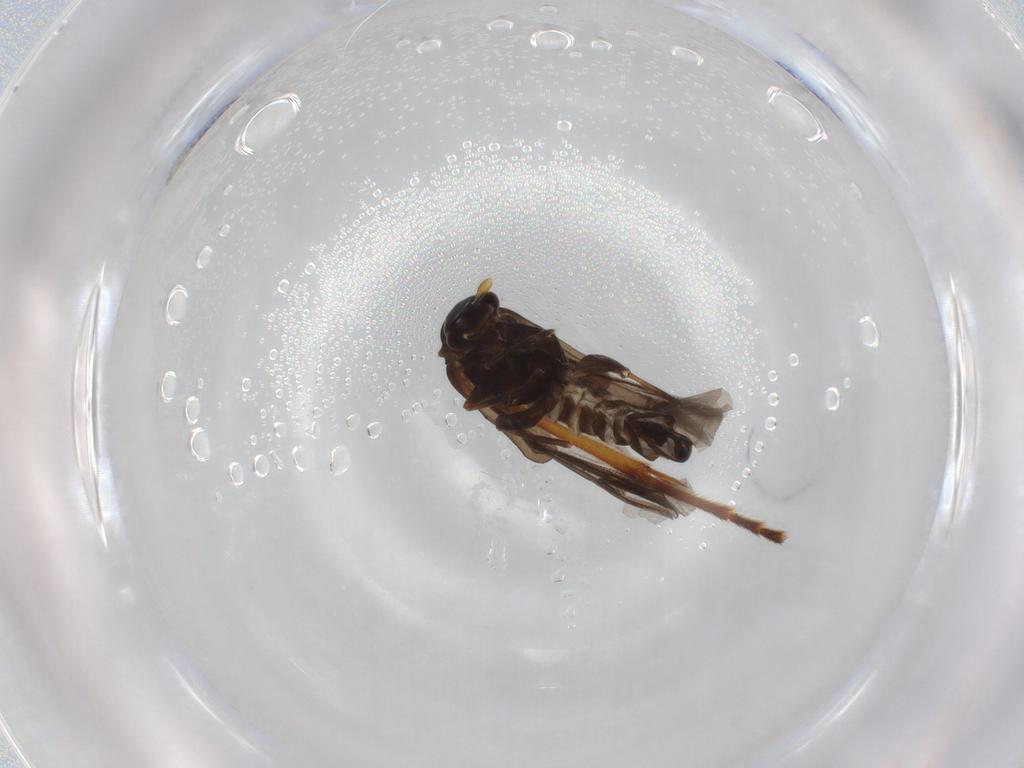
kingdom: Animalia
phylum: Arthropoda
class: Insecta
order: Coleoptera
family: Cantharidae
